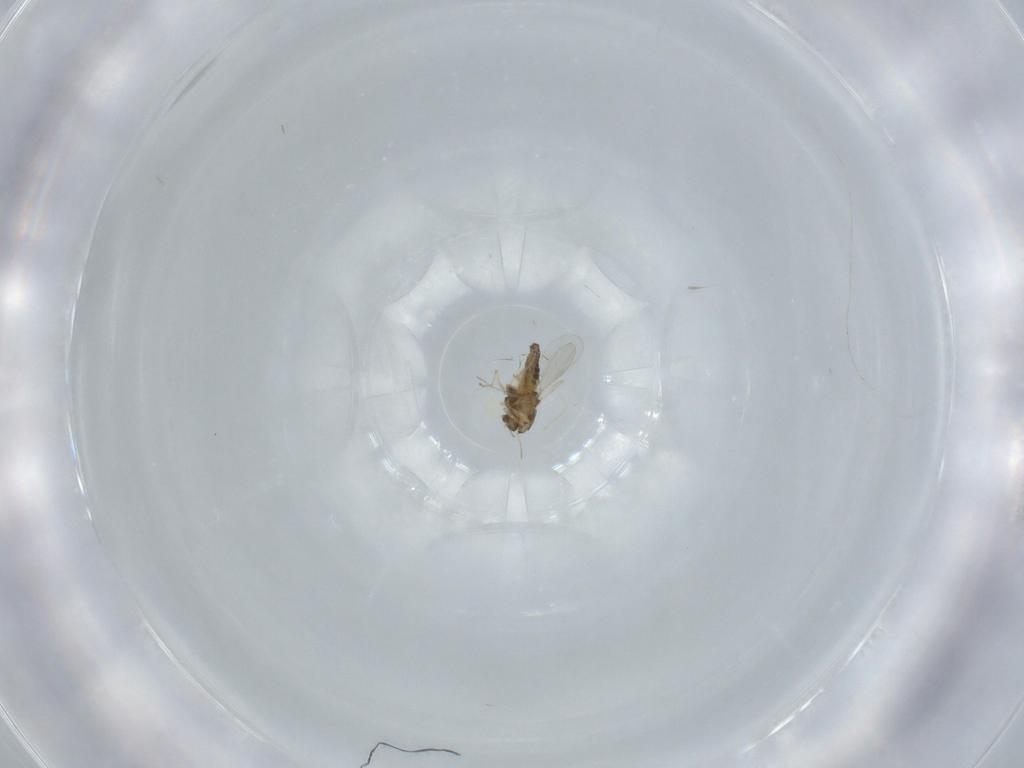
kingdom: Animalia
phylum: Arthropoda
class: Insecta
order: Diptera
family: Chironomidae
